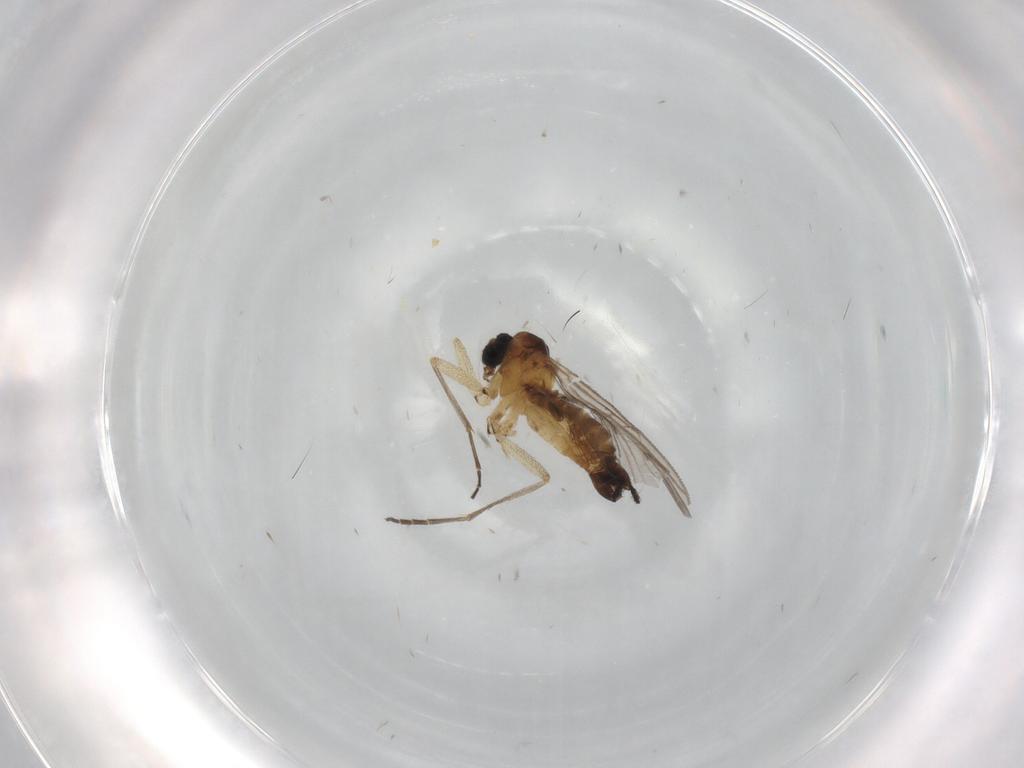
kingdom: Animalia
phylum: Arthropoda
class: Insecta
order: Diptera
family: Sciaridae
